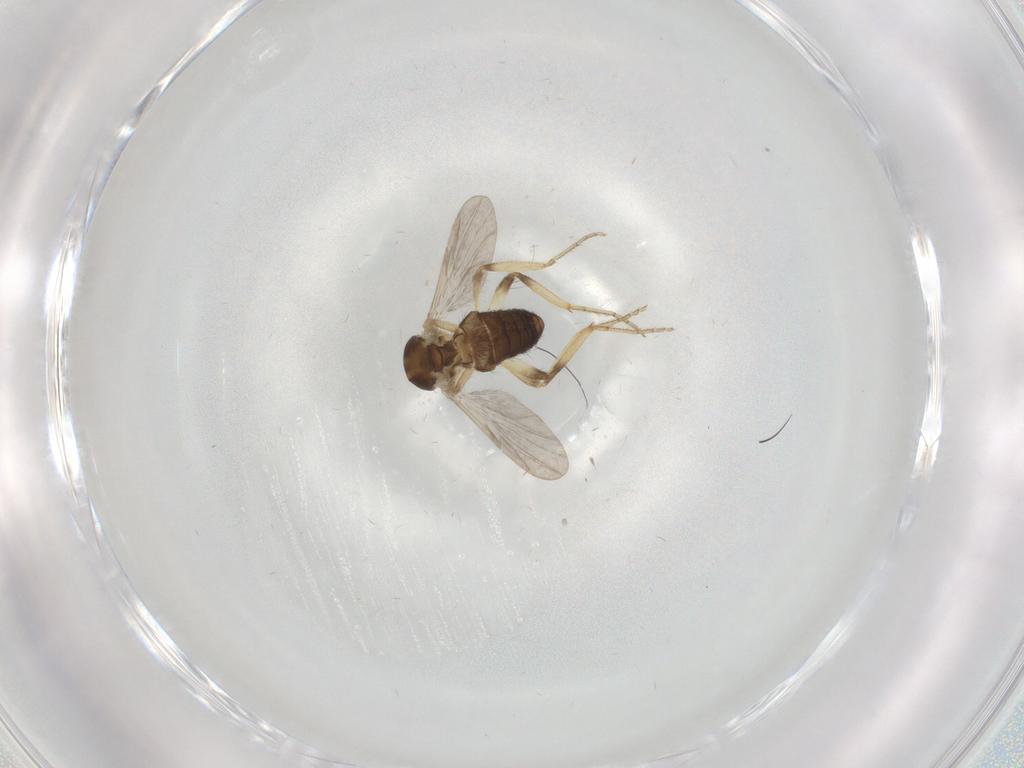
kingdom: Animalia
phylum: Arthropoda
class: Insecta
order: Diptera
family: Ceratopogonidae
